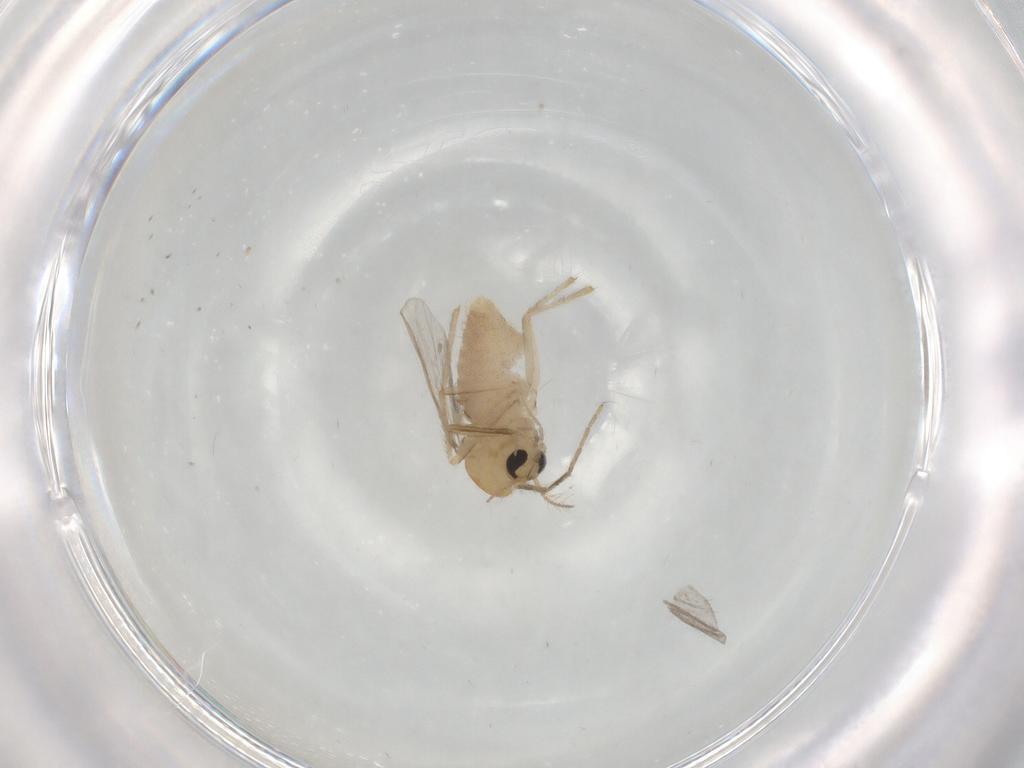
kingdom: Animalia
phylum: Arthropoda
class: Insecta
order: Diptera
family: Chironomidae
